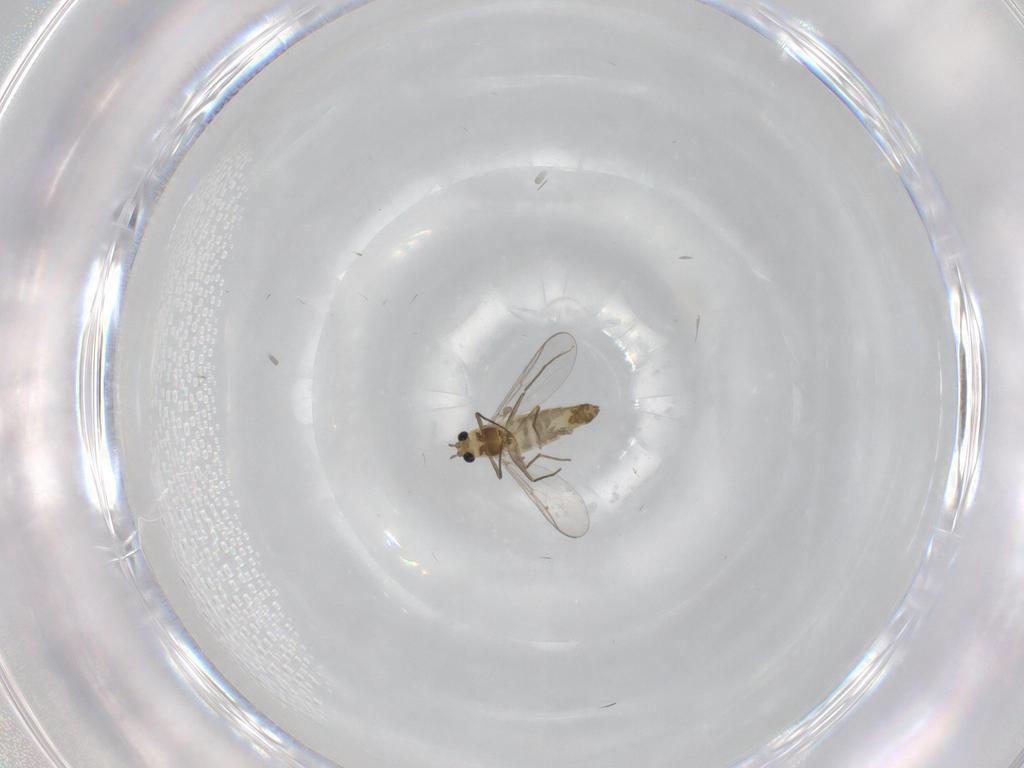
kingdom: Animalia
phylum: Arthropoda
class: Insecta
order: Diptera
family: Chironomidae
